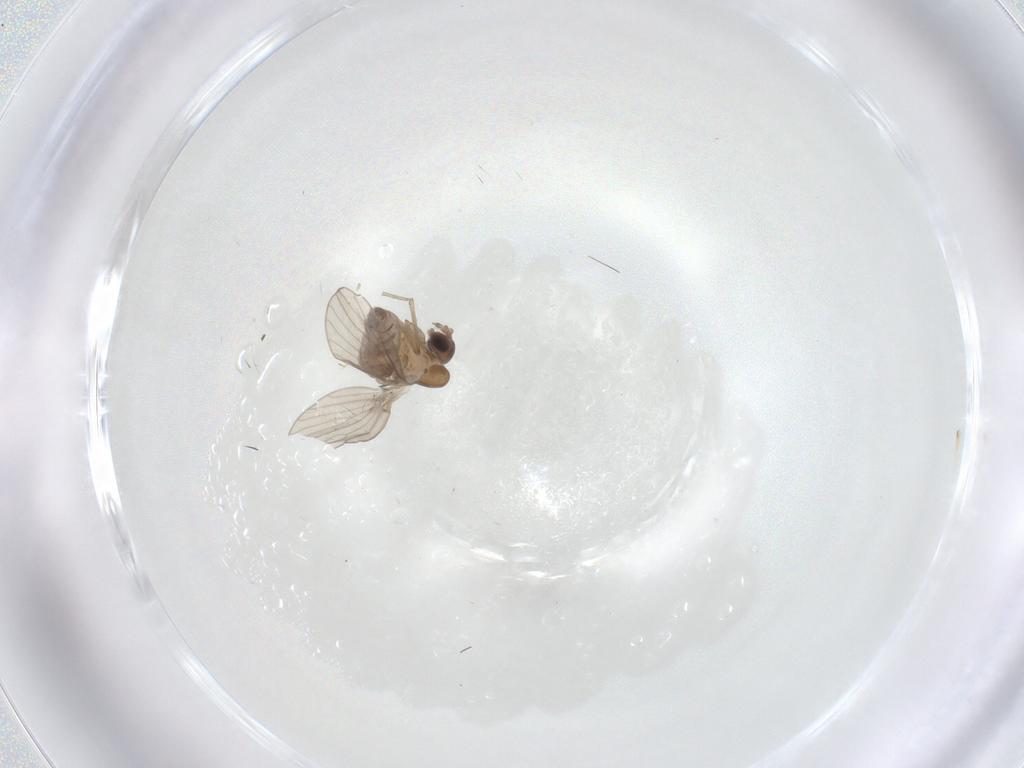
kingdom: Animalia
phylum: Arthropoda
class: Insecta
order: Diptera
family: Psychodidae
